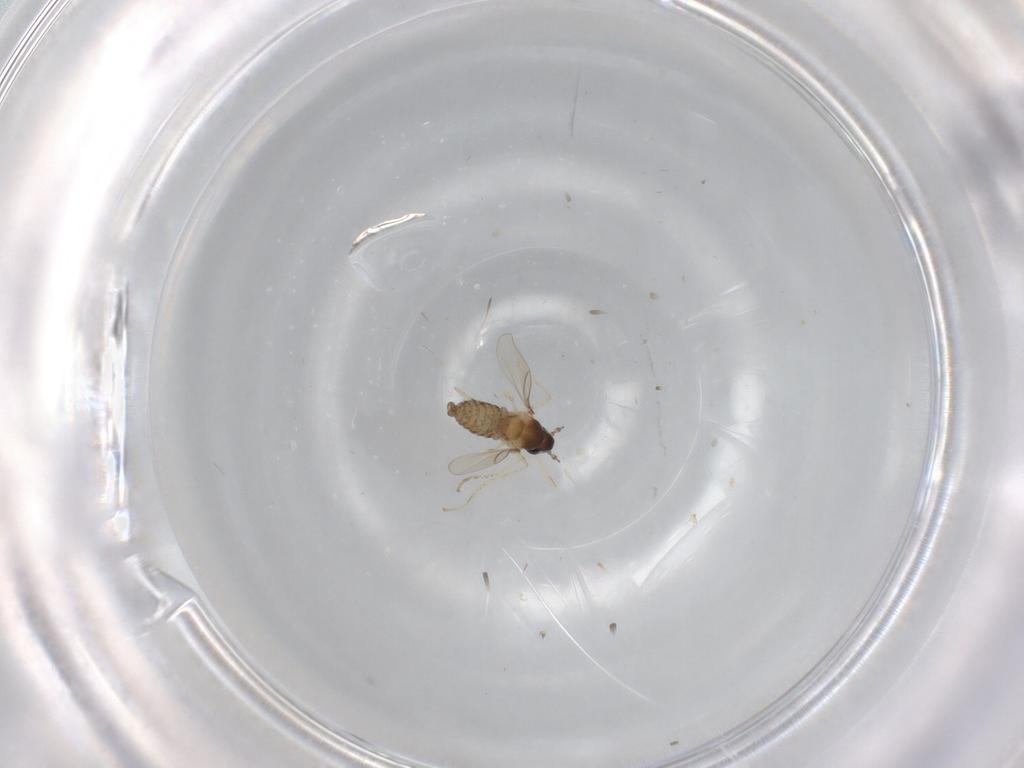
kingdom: Animalia
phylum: Arthropoda
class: Insecta
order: Diptera
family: Cecidomyiidae
